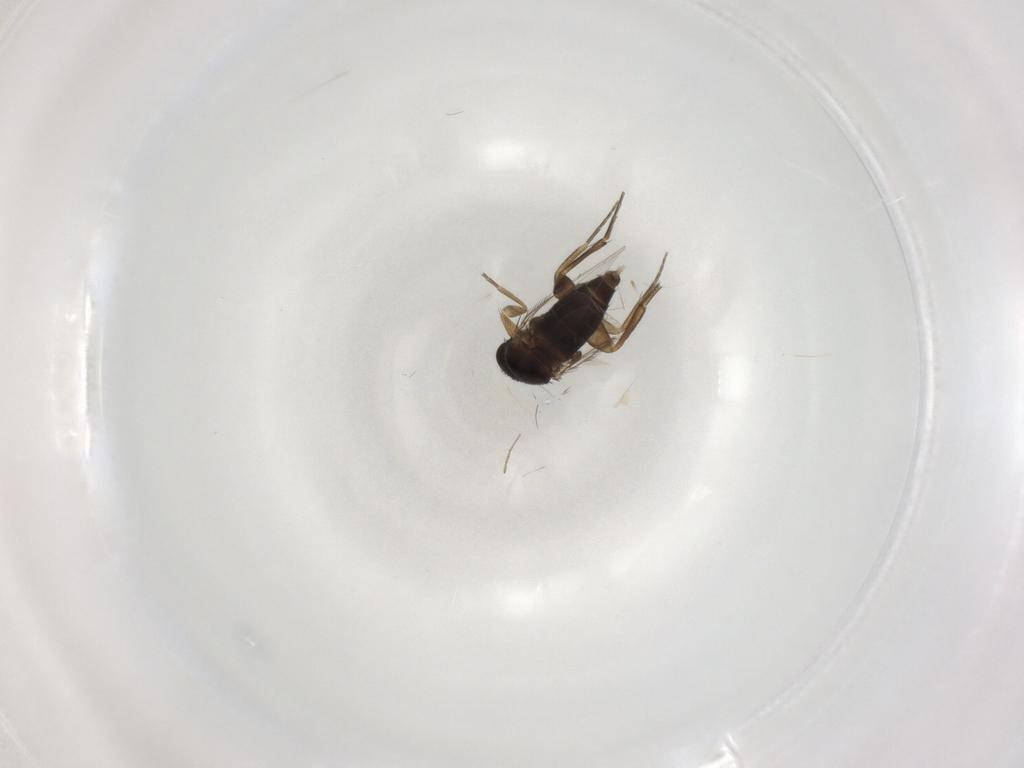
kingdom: Animalia
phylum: Arthropoda
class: Insecta
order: Diptera
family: Phoridae
